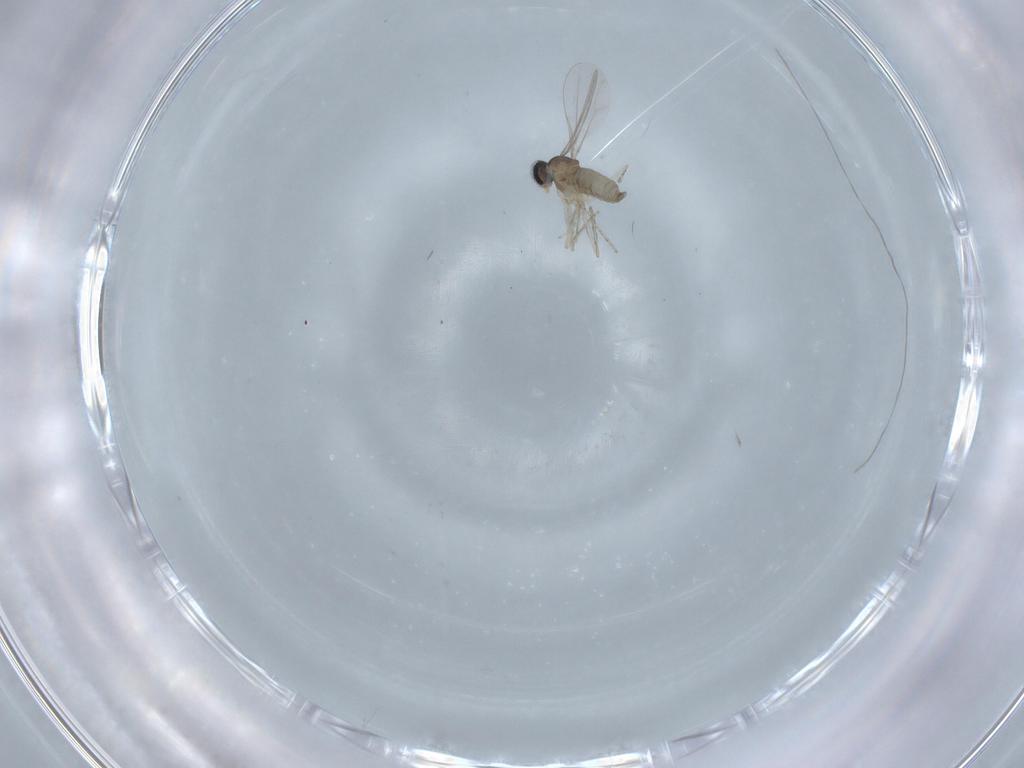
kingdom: Animalia
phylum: Arthropoda
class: Insecta
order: Diptera
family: Cecidomyiidae
